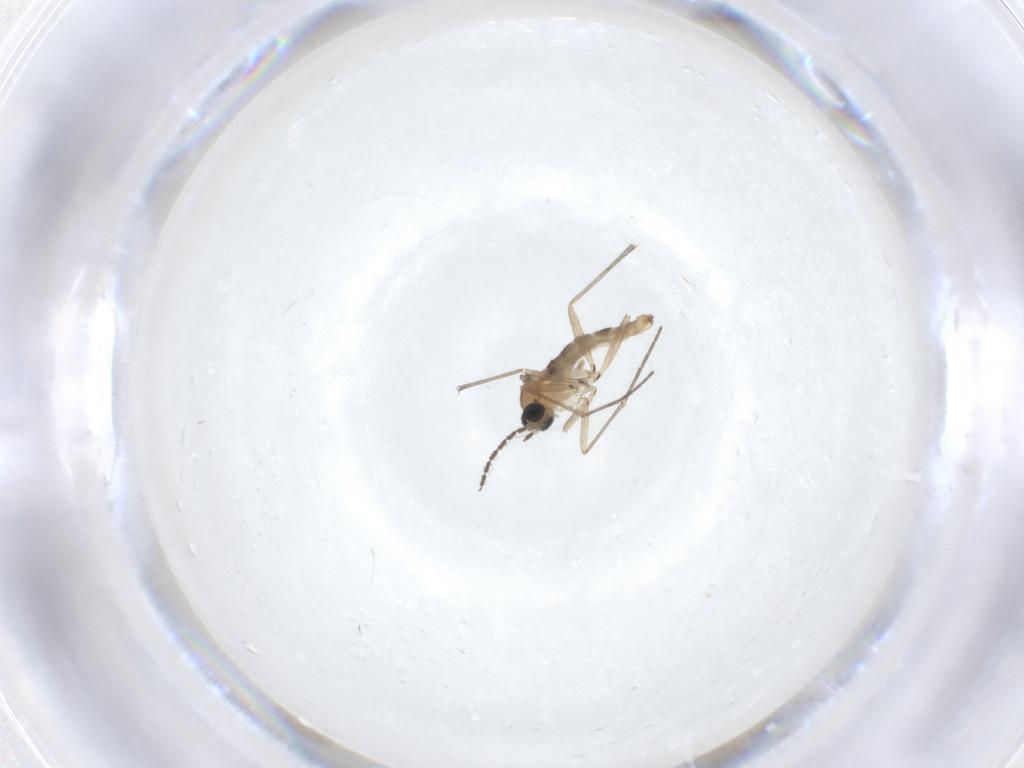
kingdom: Animalia
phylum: Arthropoda
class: Insecta
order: Diptera
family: Sciaridae
